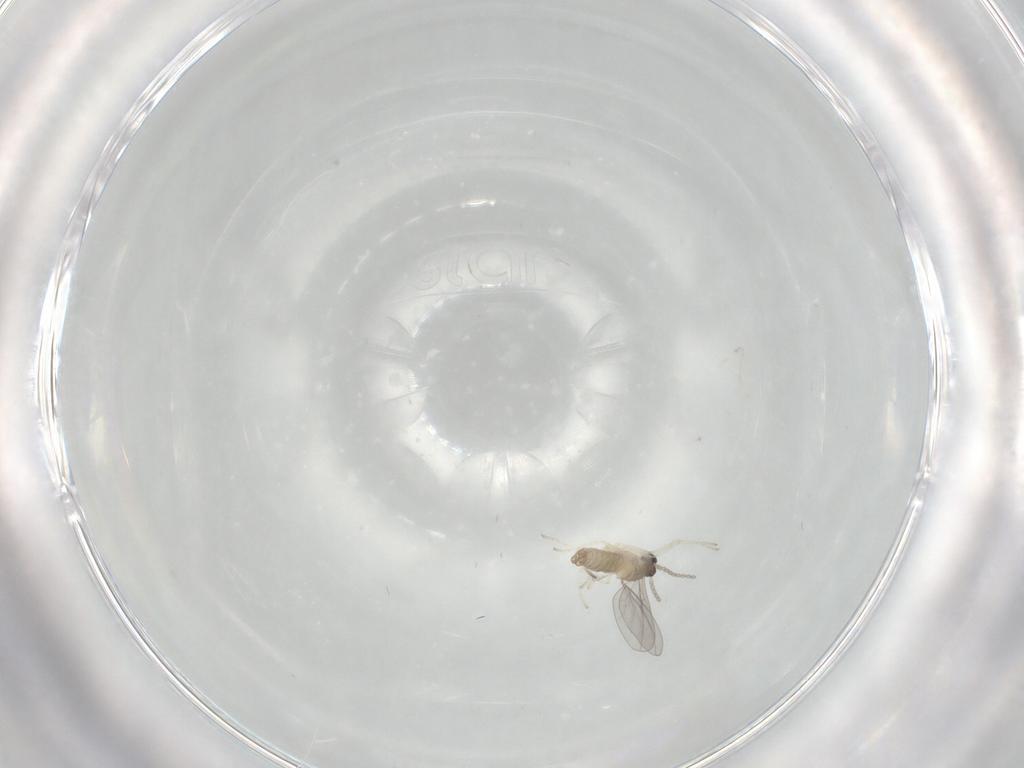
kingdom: Animalia
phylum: Arthropoda
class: Insecta
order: Diptera
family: Cecidomyiidae
